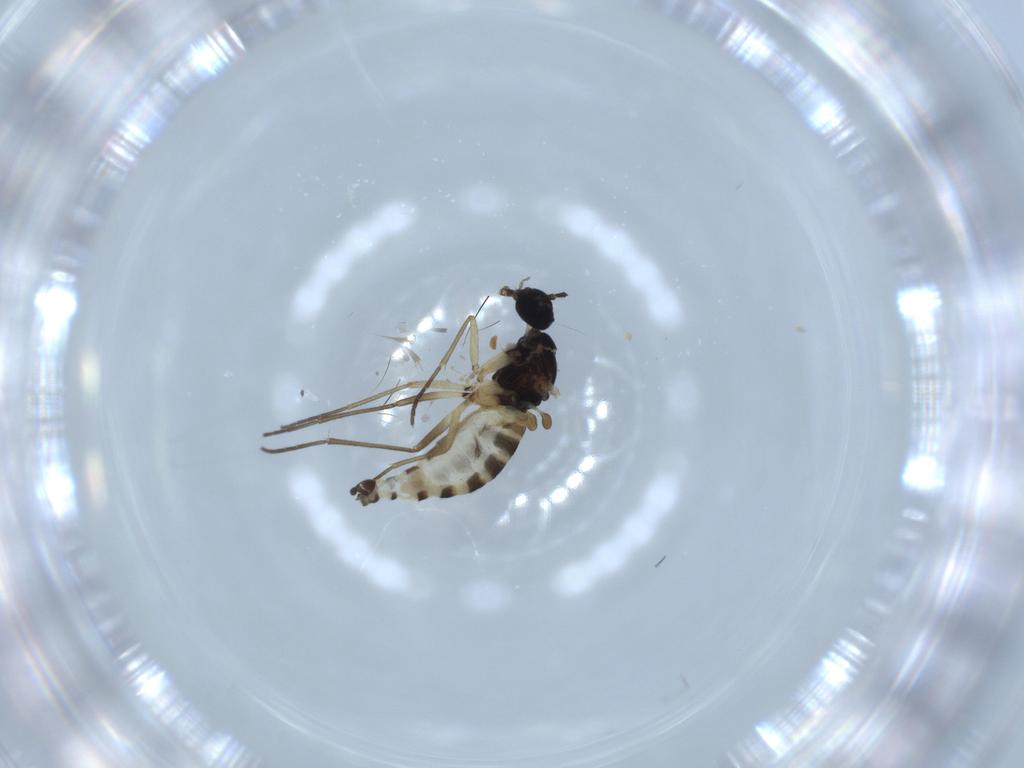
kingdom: Animalia
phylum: Arthropoda
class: Insecta
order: Diptera
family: Sciaridae
